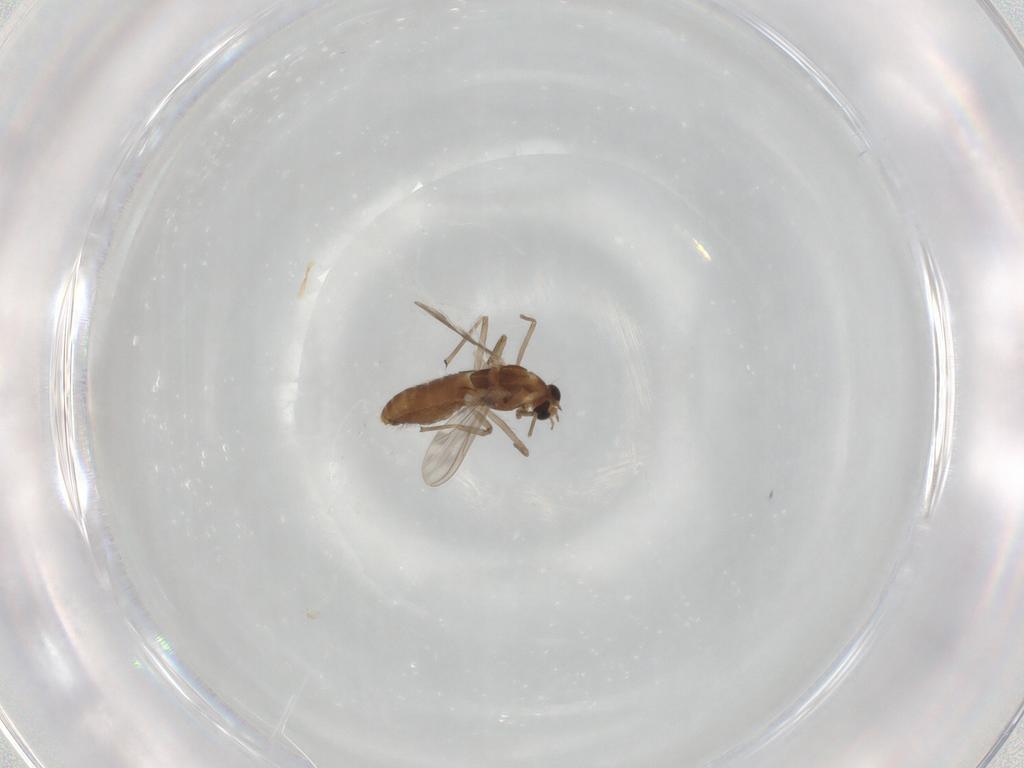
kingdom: Animalia
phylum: Arthropoda
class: Insecta
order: Diptera
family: Chironomidae
